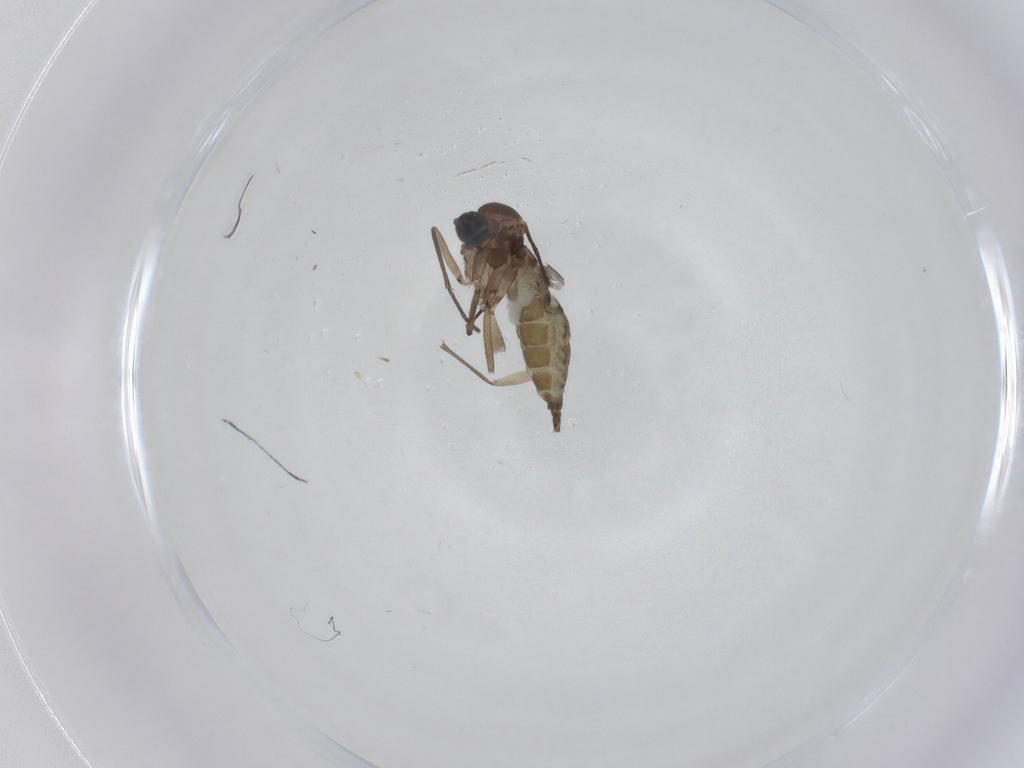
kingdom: Animalia
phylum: Arthropoda
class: Insecta
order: Diptera
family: Sciaridae
